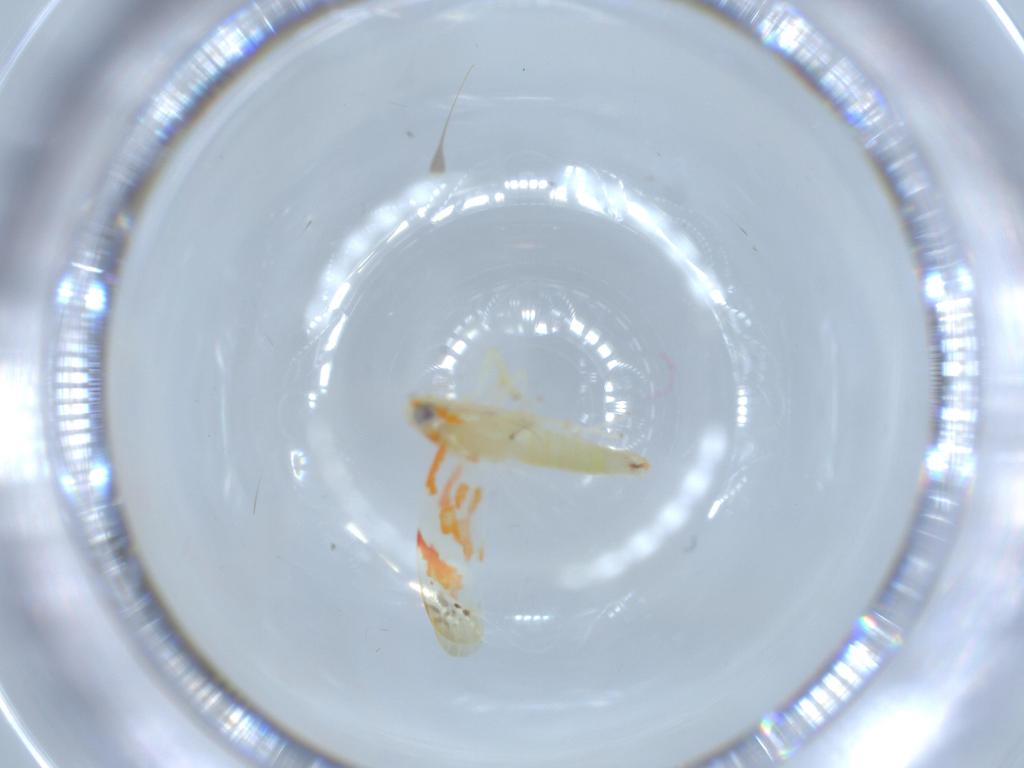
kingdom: Animalia
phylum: Arthropoda
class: Insecta
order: Hemiptera
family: Cicadellidae
